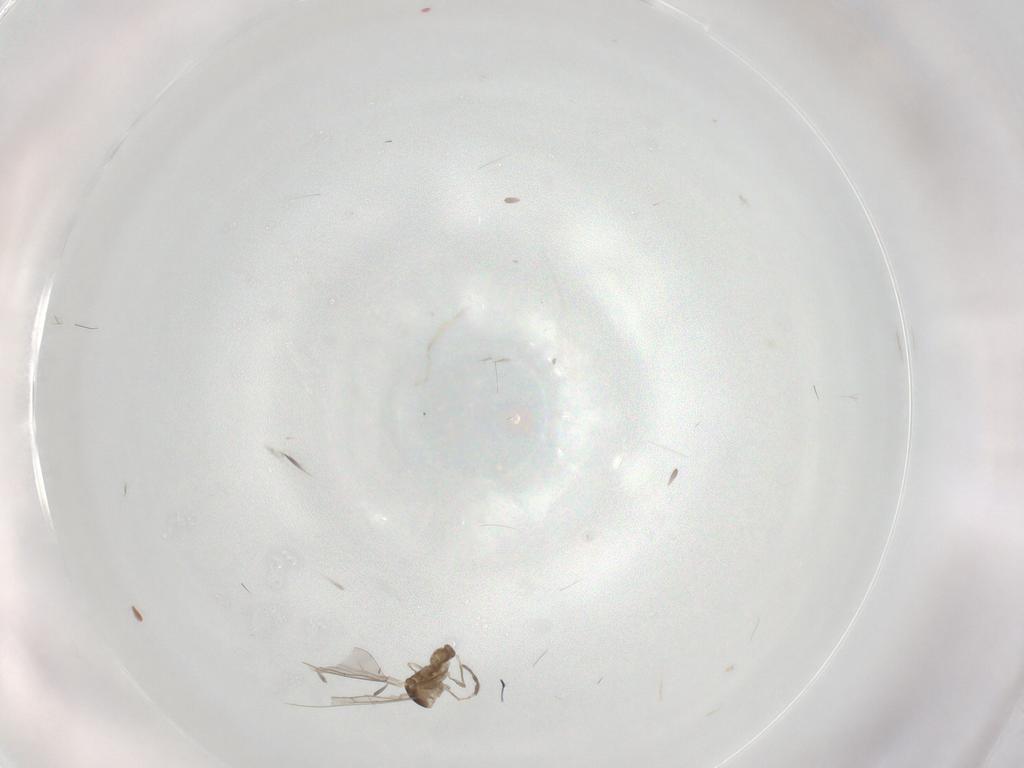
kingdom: Animalia
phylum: Arthropoda
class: Insecta
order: Diptera
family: Cecidomyiidae
